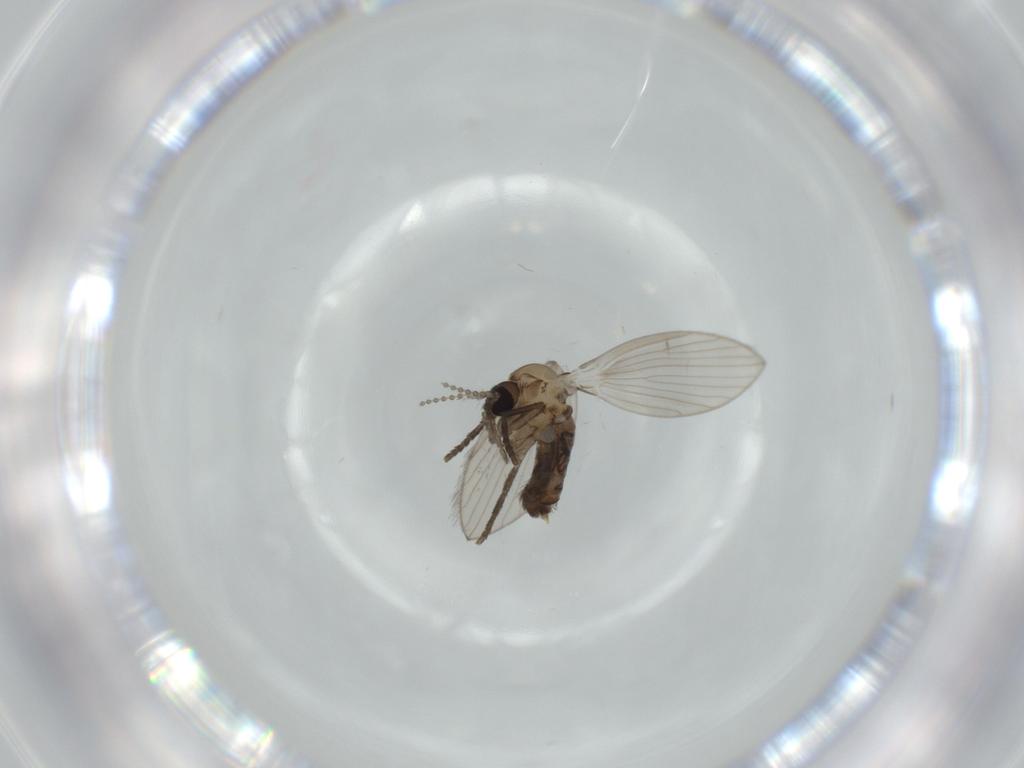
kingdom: Animalia
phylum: Arthropoda
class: Insecta
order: Diptera
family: Psychodidae
